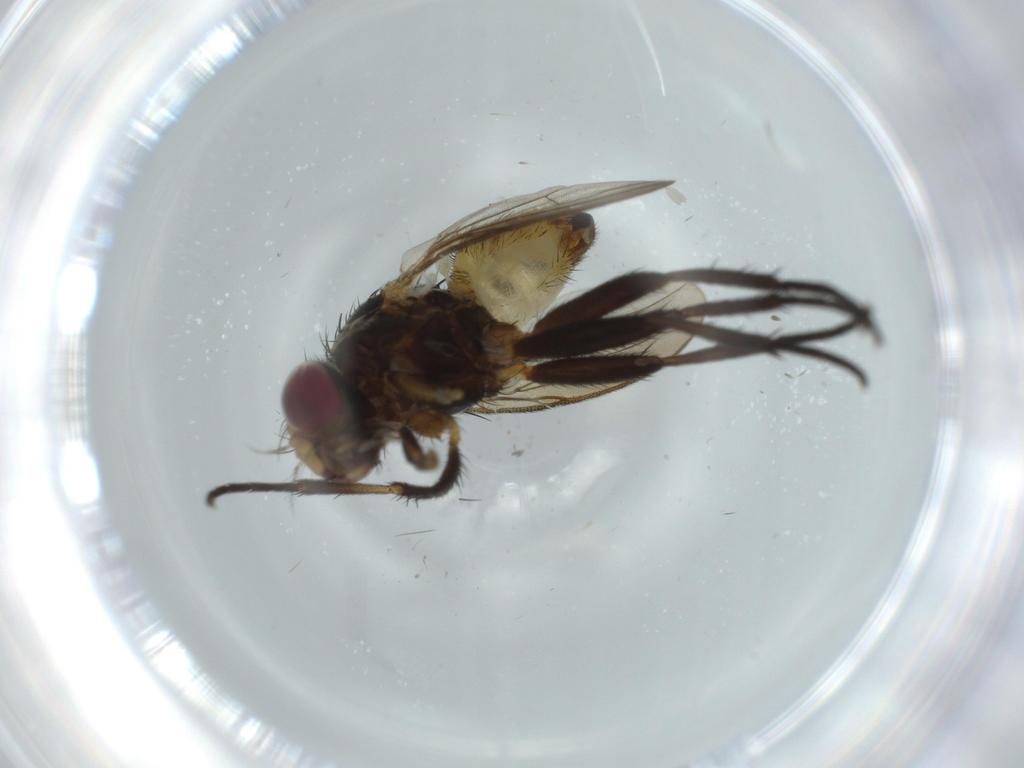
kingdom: Animalia
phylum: Arthropoda
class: Insecta
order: Diptera
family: Anthomyiidae
